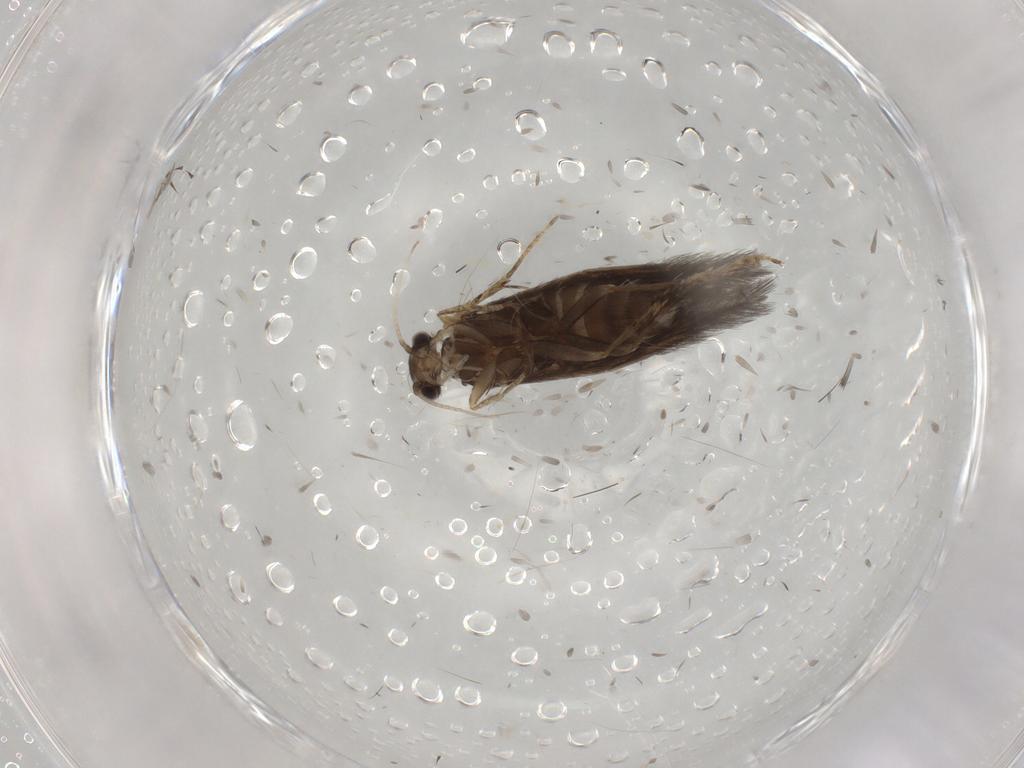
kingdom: Animalia
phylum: Arthropoda
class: Insecta
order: Trichoptera
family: Hydroptilidae
